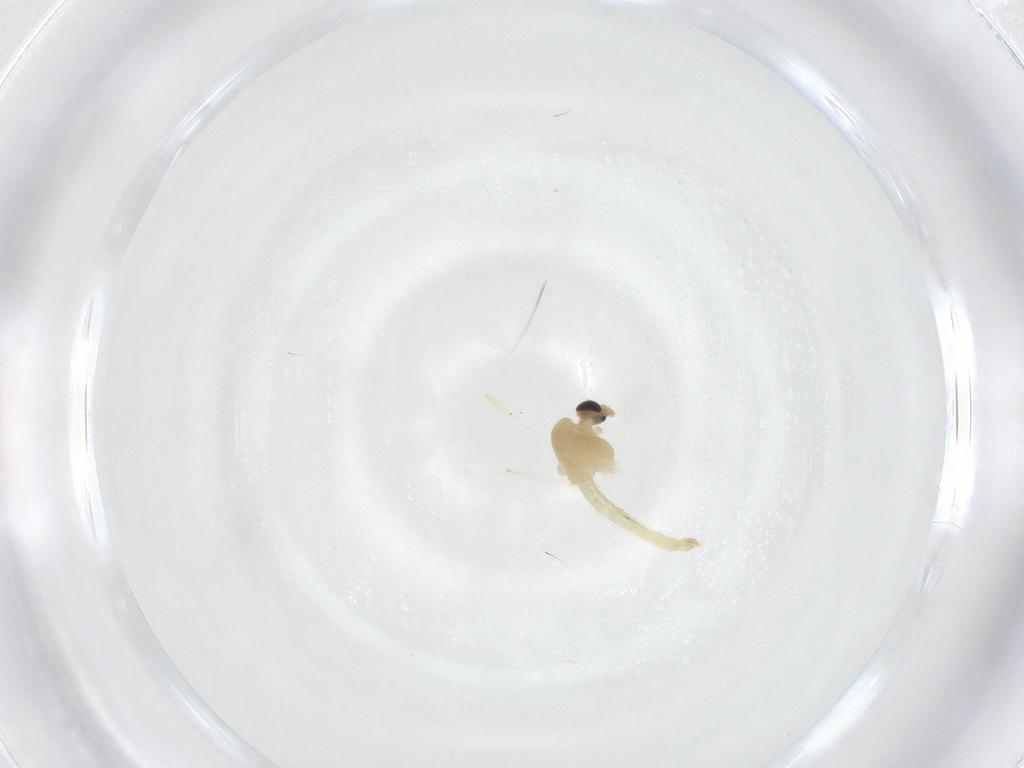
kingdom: Animalia
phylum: Arthropoda
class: Insecta
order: Diptera
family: Chironomidae
